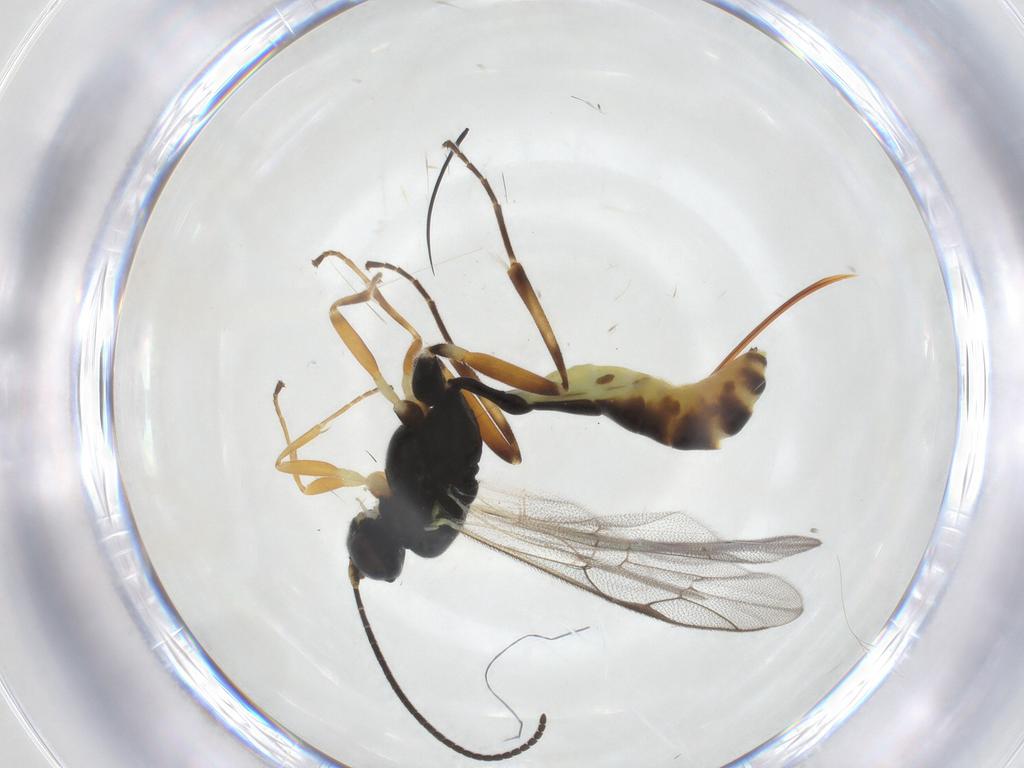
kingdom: Animalia
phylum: Arthropoda
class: Insecta
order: Hymenoptera
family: Ichneumonidae
